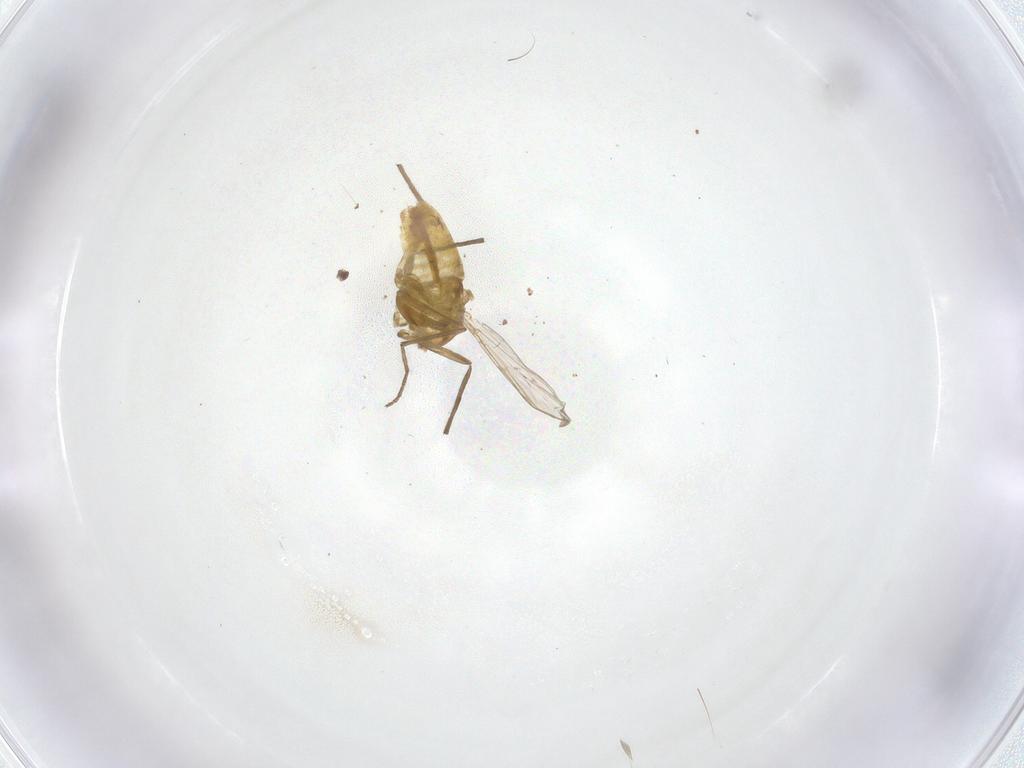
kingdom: Animalia
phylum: Arthropoda
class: Insecta
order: Diptera
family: Chironomidae
